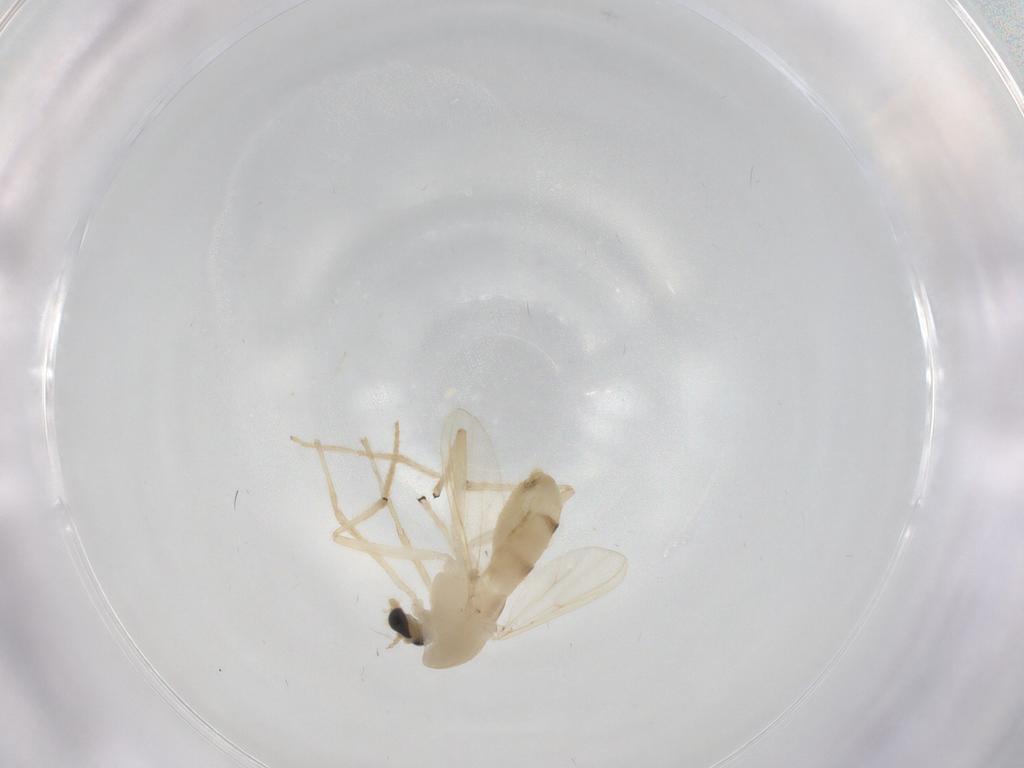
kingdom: Animalia
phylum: Arthropoda
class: Insecta
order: Diptera
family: Chironomidae
